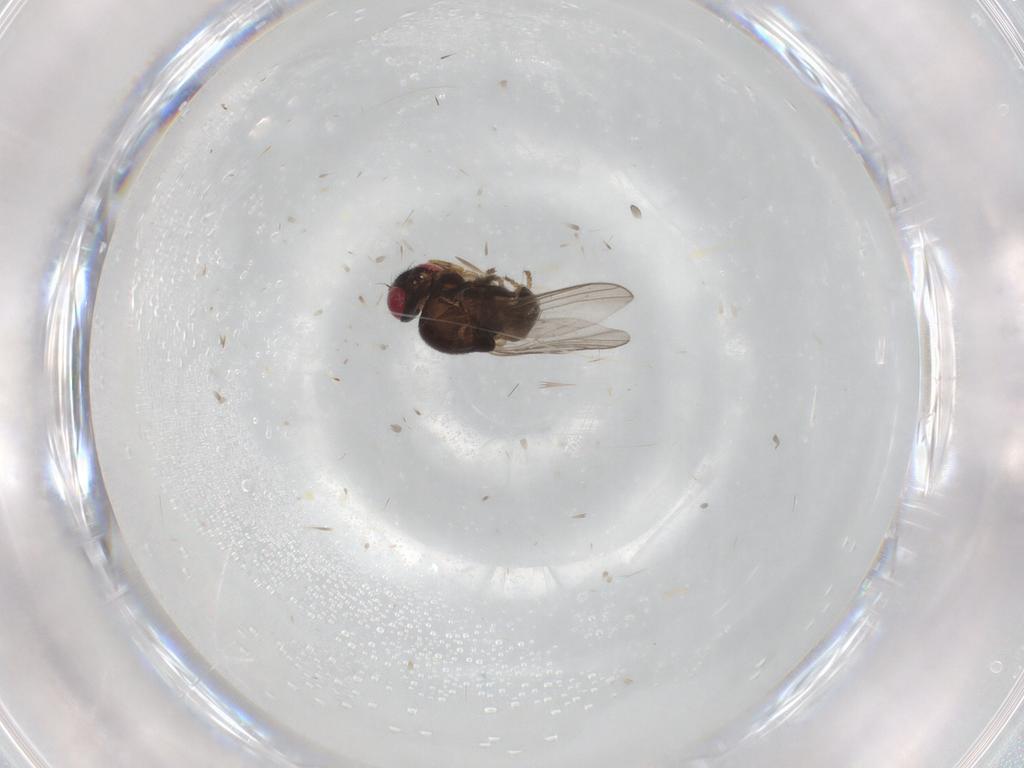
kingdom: Animalia
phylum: Arthropoda
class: Insecta
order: Diptera
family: Chloropidae
